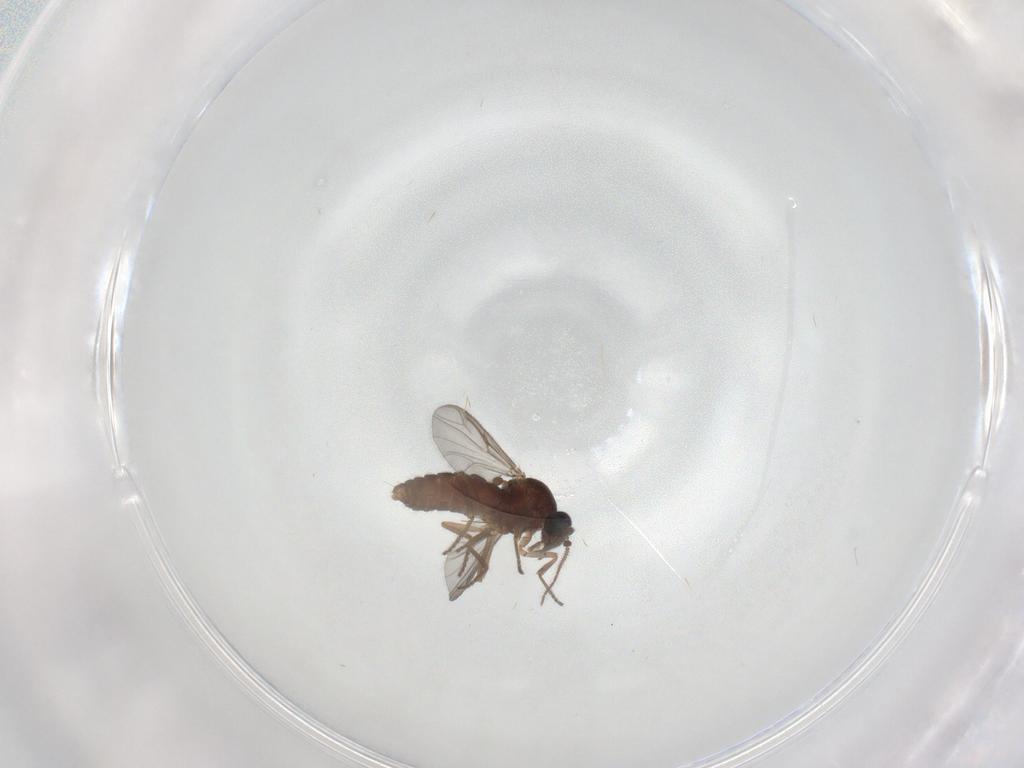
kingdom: Animalia
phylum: Arthropoda
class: Insecta
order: Diptera
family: Ceratopogonidae
